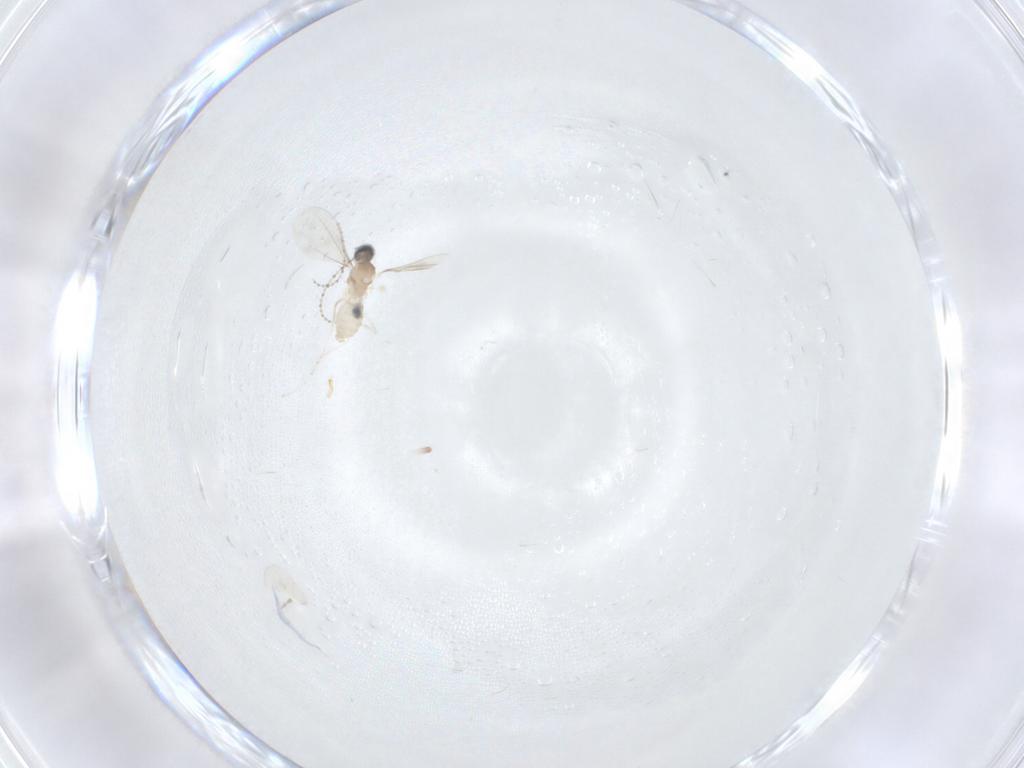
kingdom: Animalia
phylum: Arthropoda
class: Insecta
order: Diptera
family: Cecidomyiidae
